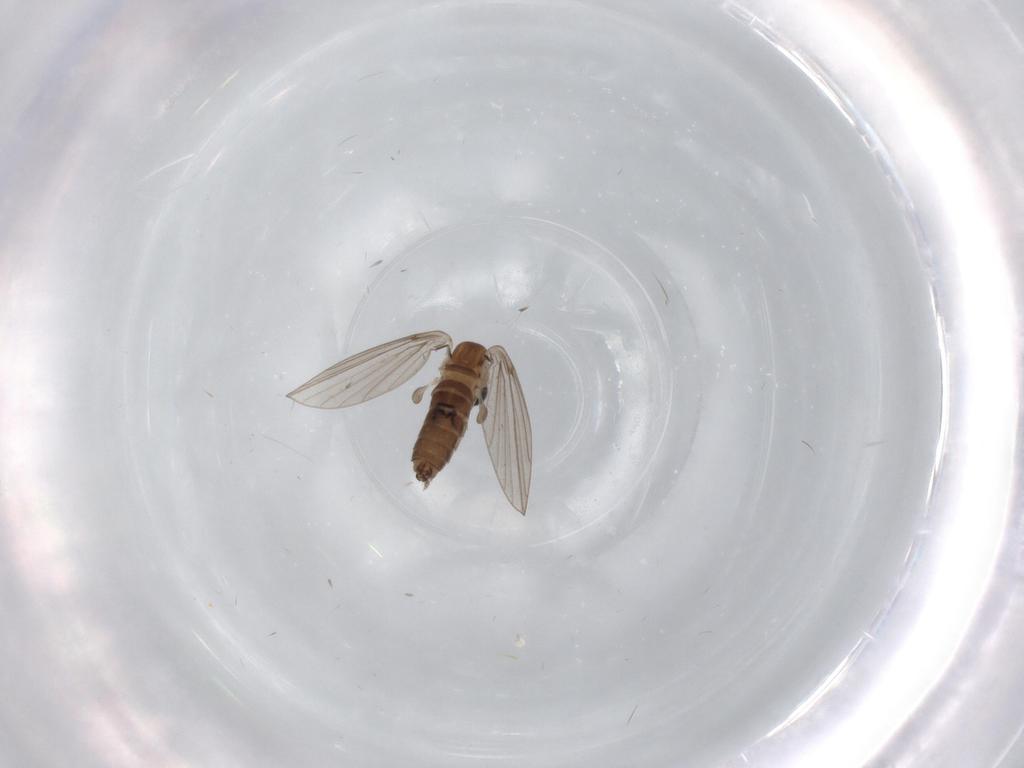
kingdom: Animalia
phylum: Arthropoda
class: Insecta
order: Diptera
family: Sciaridae
